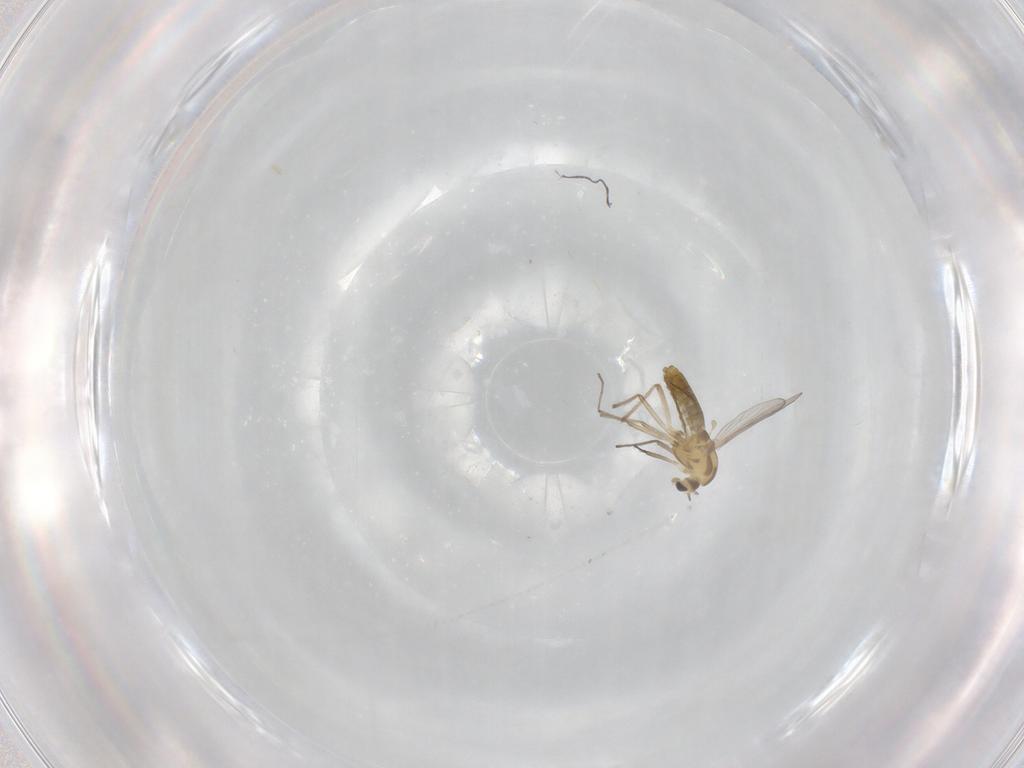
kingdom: Animalia
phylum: Arthropoda
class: Insecta
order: Diptera
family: Chironomidae
